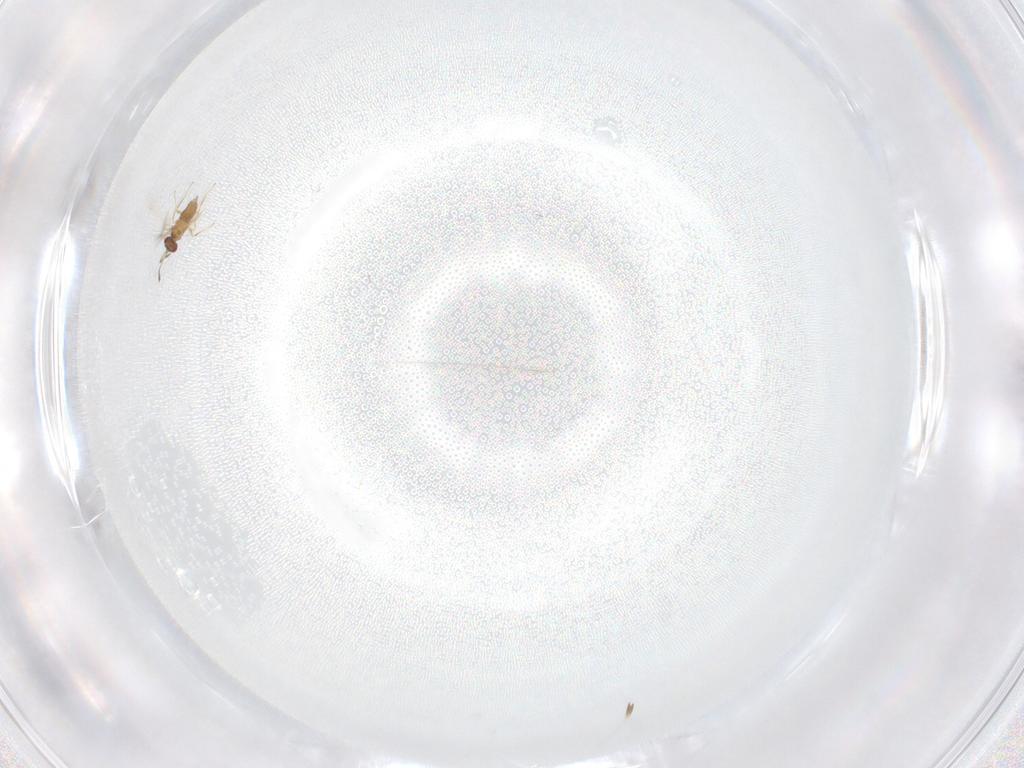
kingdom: Animalia
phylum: Arthropoda
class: Insecta
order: Hymenoptera
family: Mymaridae
